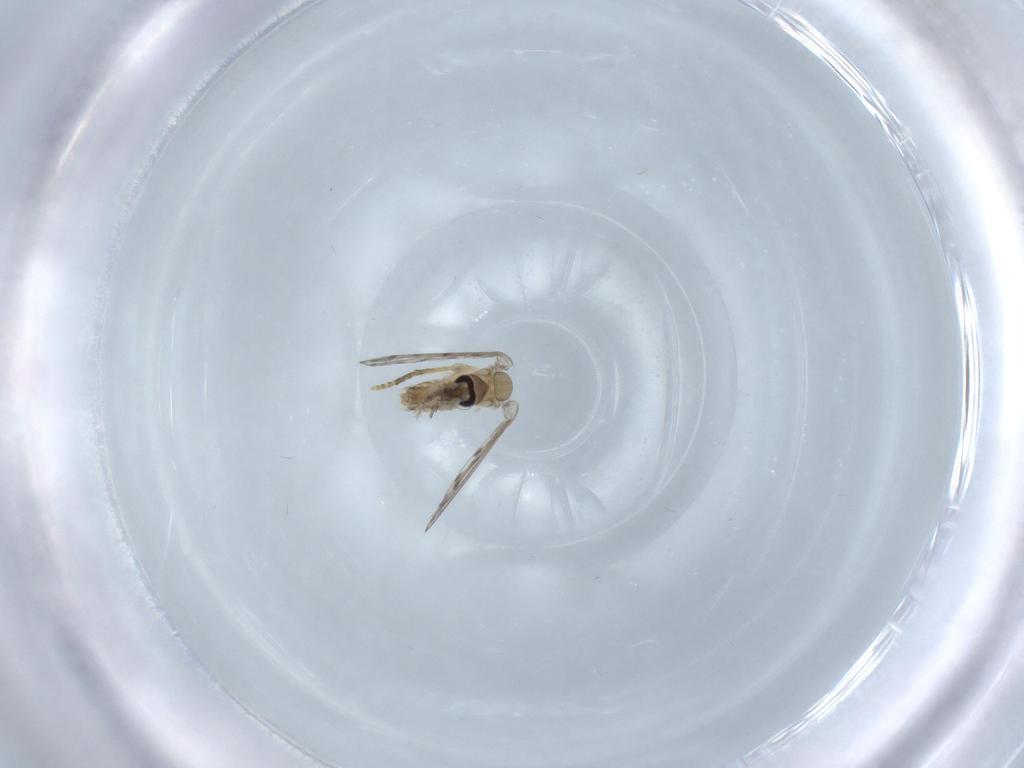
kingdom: Animalia
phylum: Arthropoda
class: Insecta
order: Diptera
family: Psychodidae
